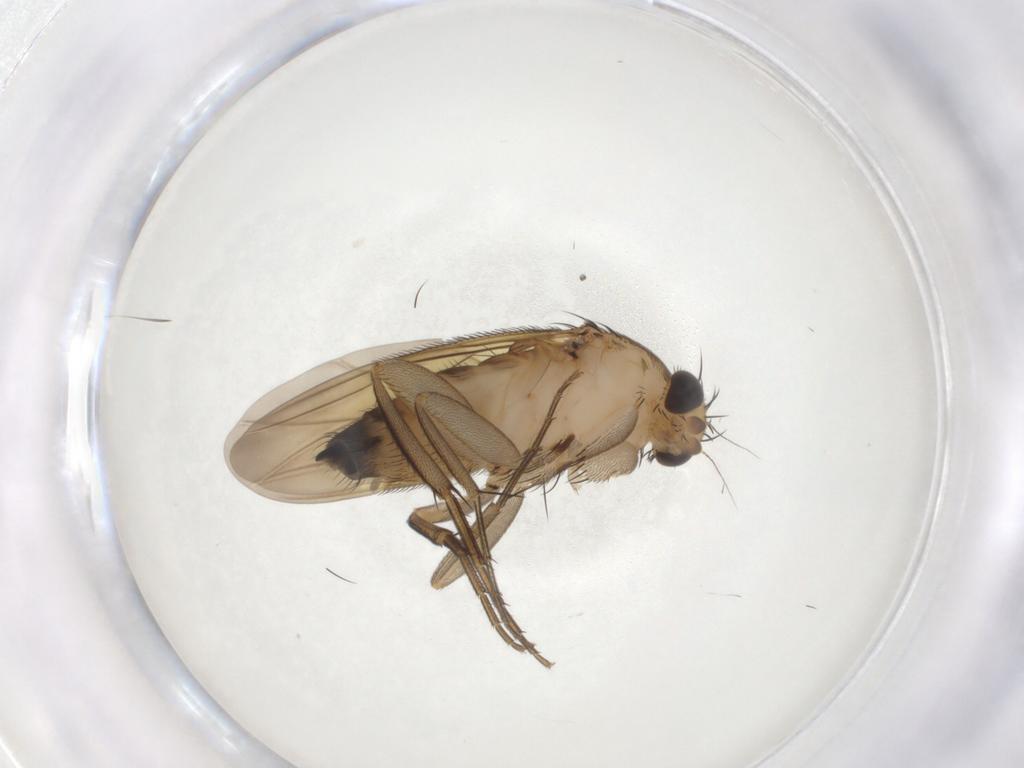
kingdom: Animalia
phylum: Arthropoda
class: Insecta
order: Diptera
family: Phoridae
